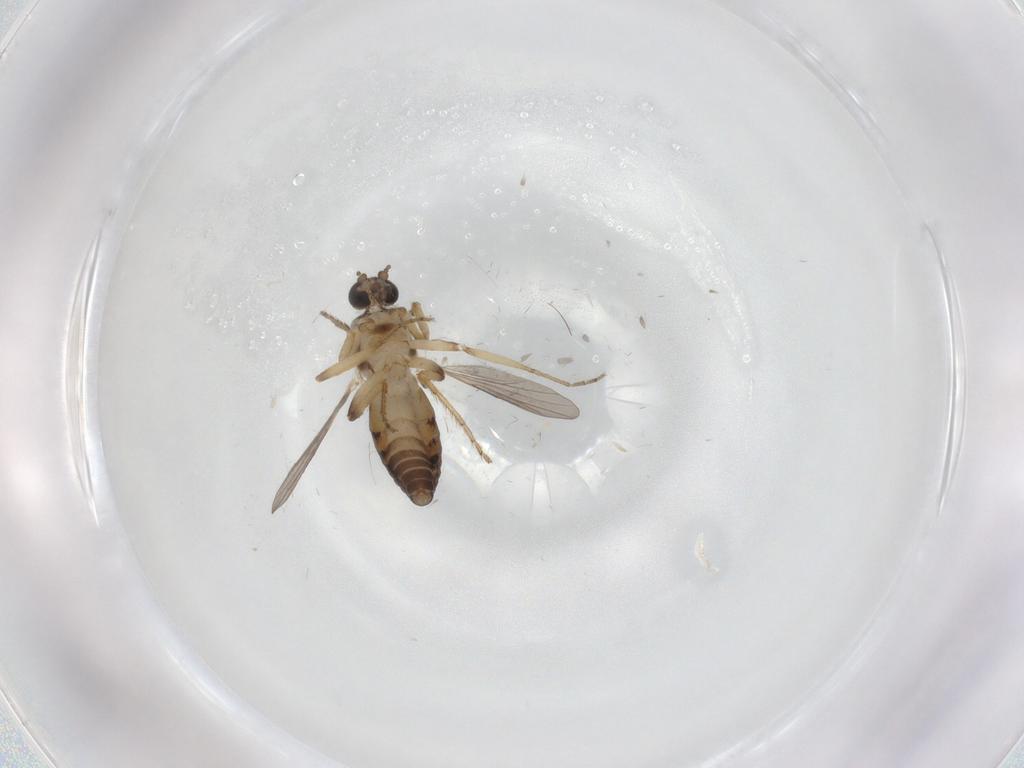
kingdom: Animalia
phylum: Arthropoda
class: Insecta
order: Diptera
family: Ceratopogonidae
